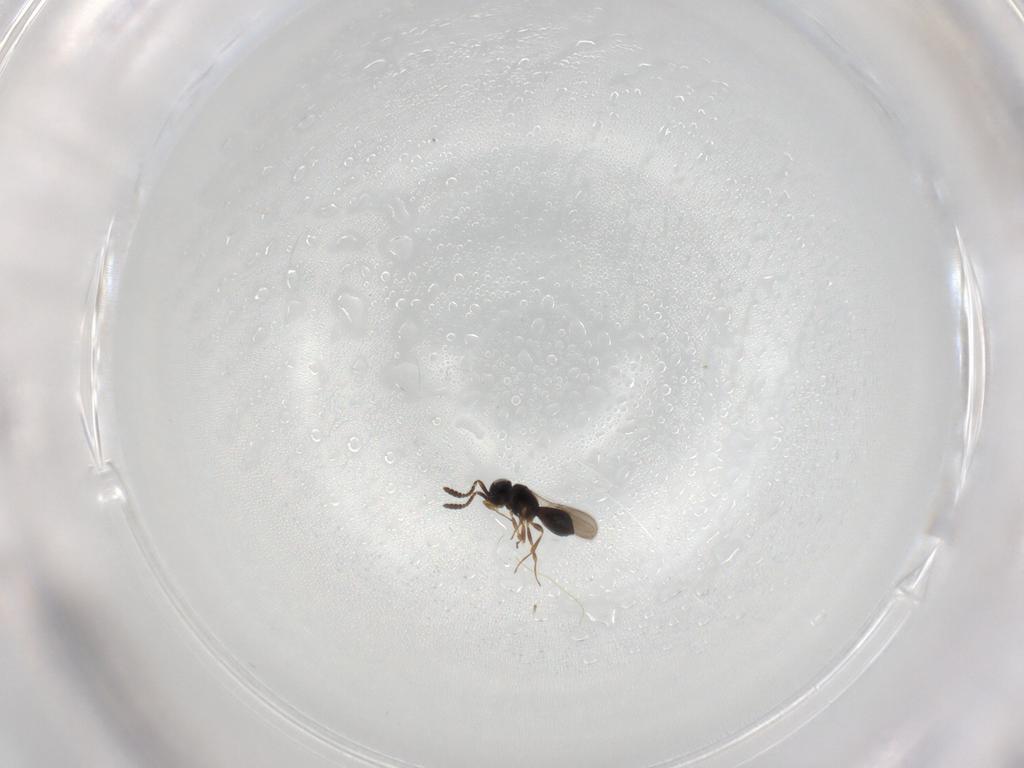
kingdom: Animalia
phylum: Arthropoda
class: Insecta
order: Hymenoptera
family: Scelionidae
